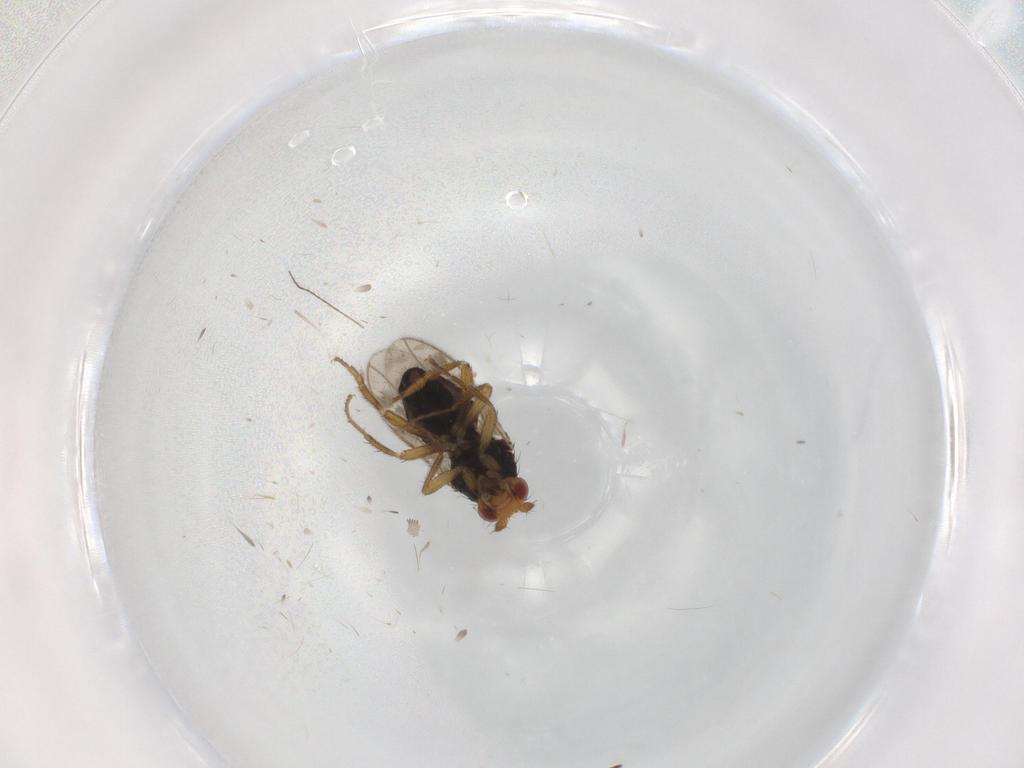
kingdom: Animalia
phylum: Arthropoda
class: Insecta
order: Diptera
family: Sphaeroceridae
